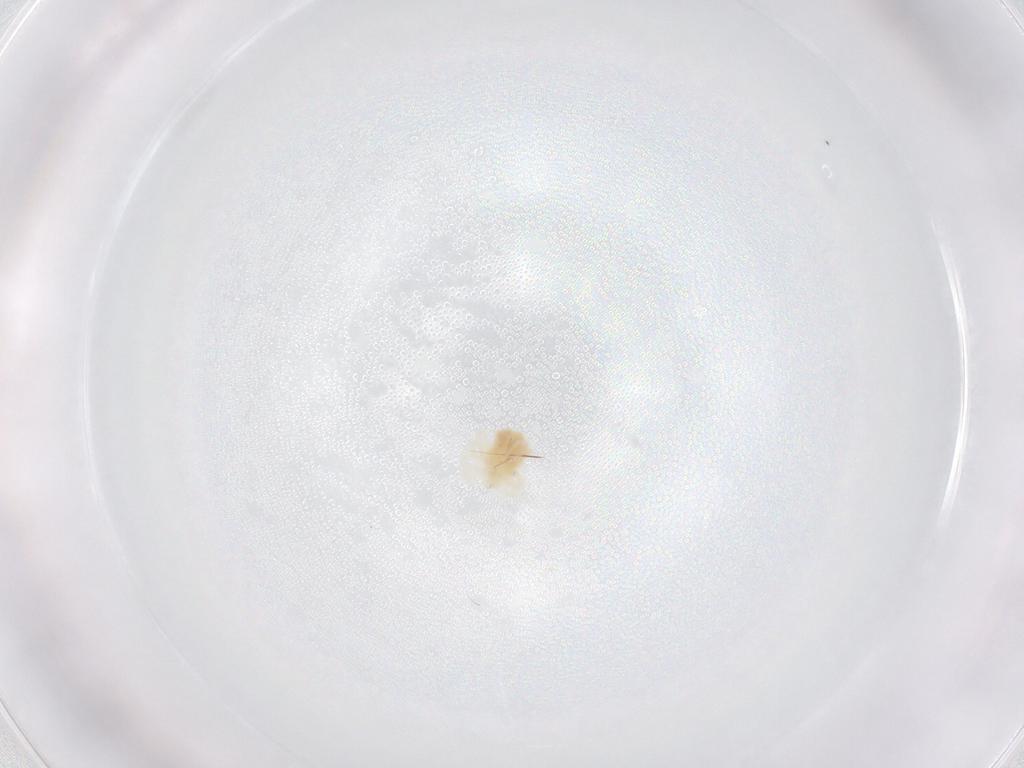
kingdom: Animalia
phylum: Arthropoda
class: Arachnida
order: Trombidiformes
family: Anystidae
